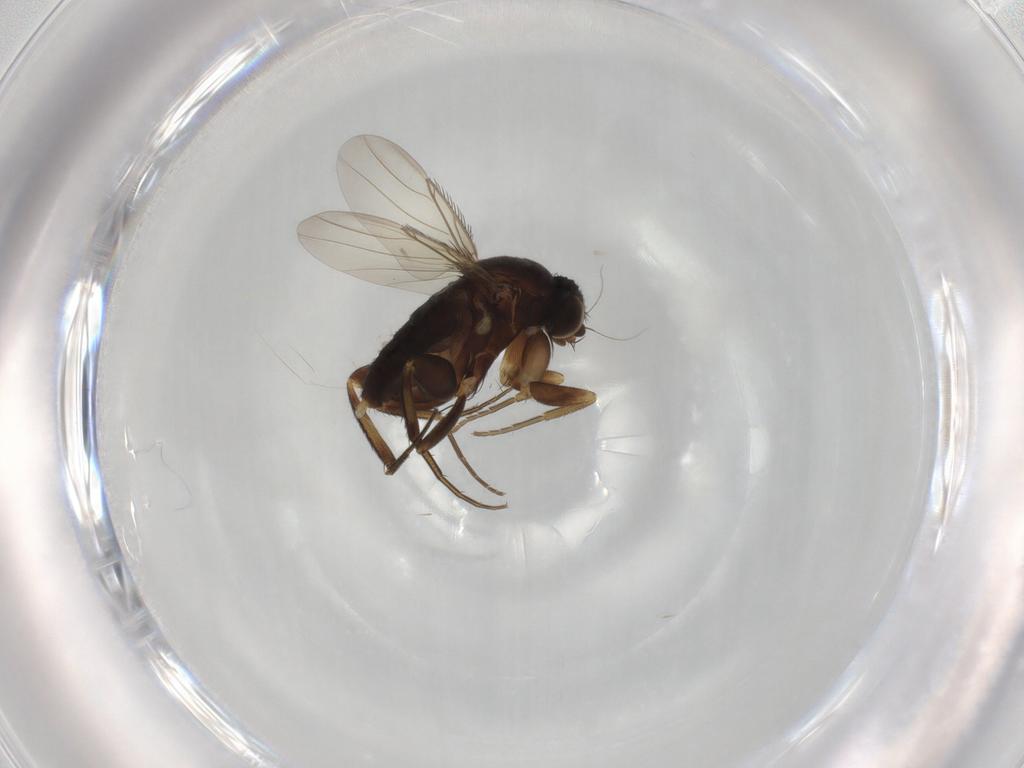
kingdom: Animalia
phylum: Arthropoda
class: Insecta
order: Diptera
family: Phoridae
